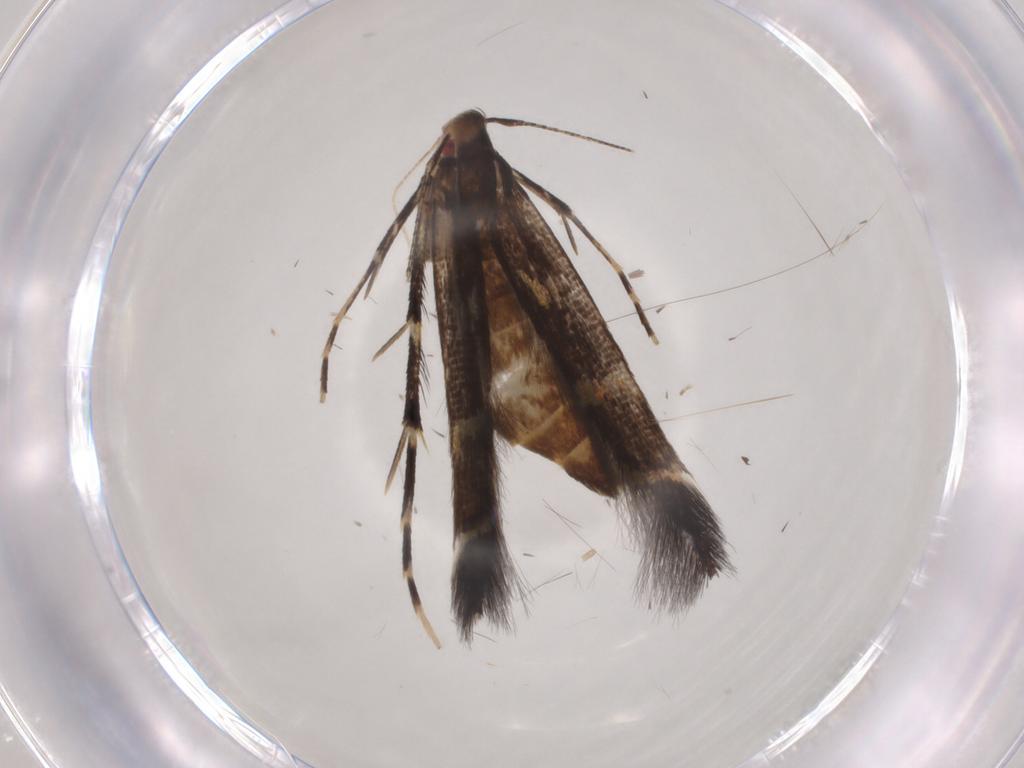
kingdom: Animalia
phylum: Arthropoda
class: Insecta
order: Lepidoptera
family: Cosmopterigidae
